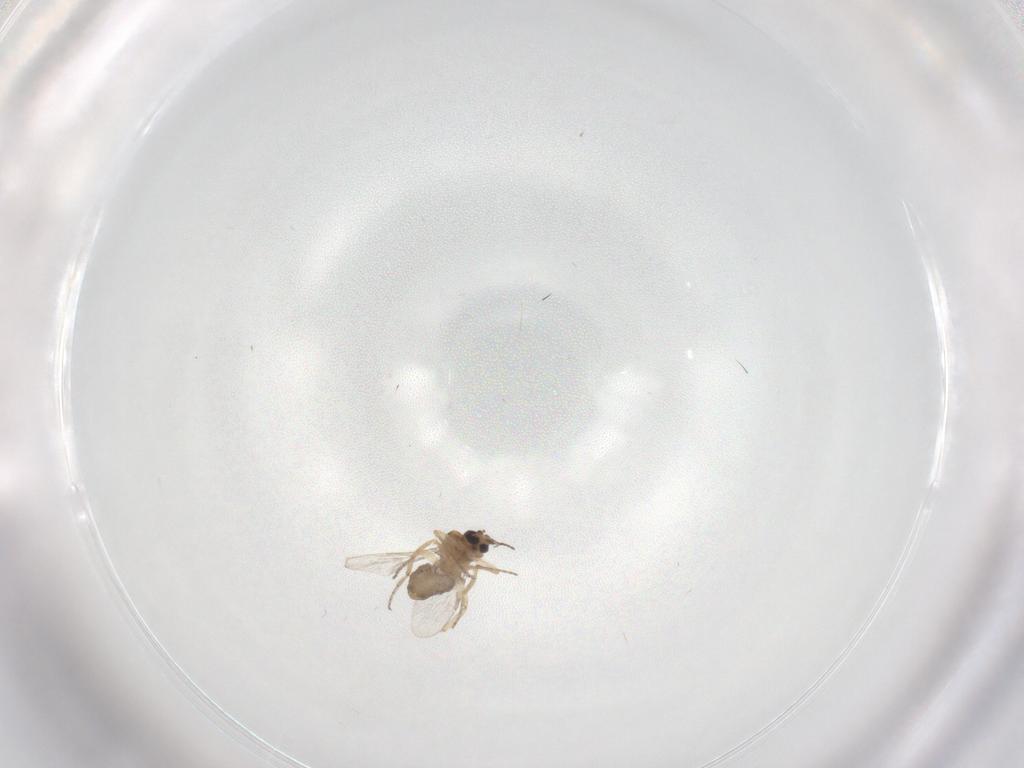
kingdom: Animalia
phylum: Arthropoda
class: Insecta
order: Diptera
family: Ceratopogonidae
